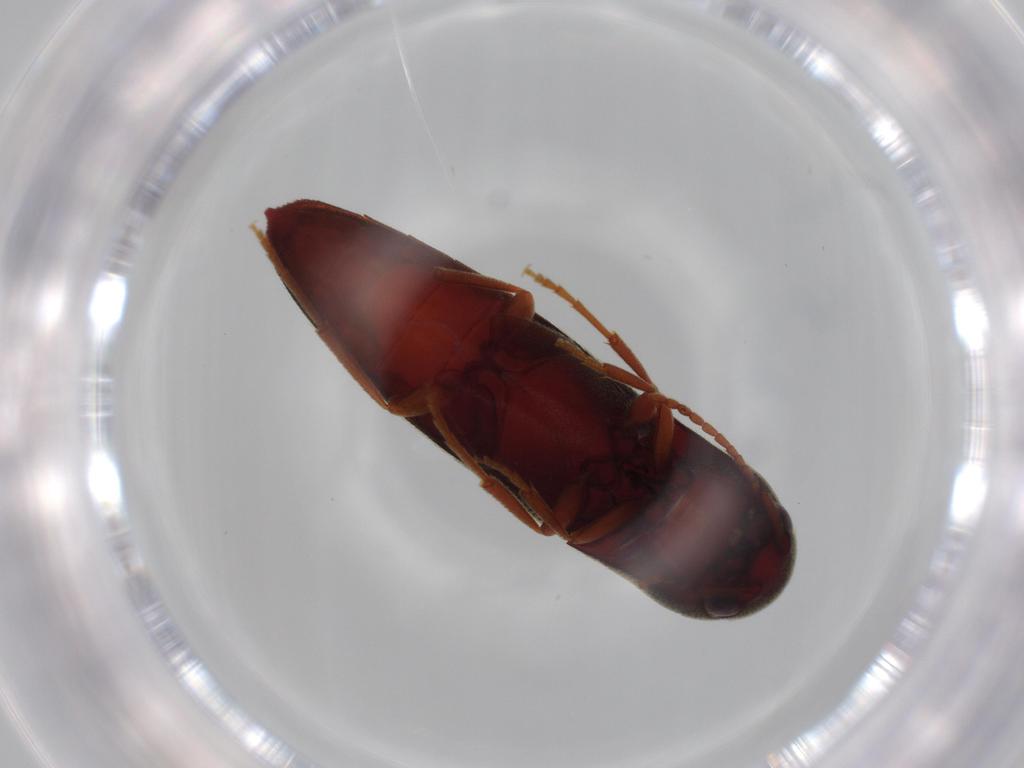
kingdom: Animalia
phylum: Arthropoda
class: Insecta
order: Coleoptera
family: Eucnemidae
